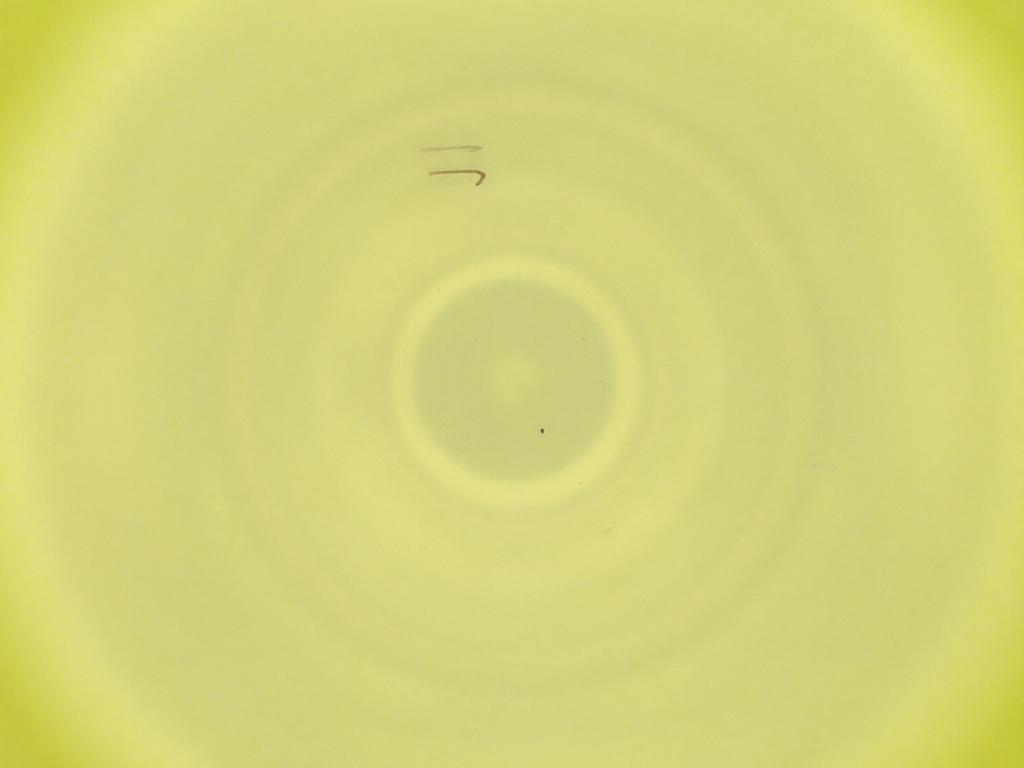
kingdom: Animalia
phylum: Arthropoda
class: Insecta
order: Diptera
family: Cecidomyiidae
